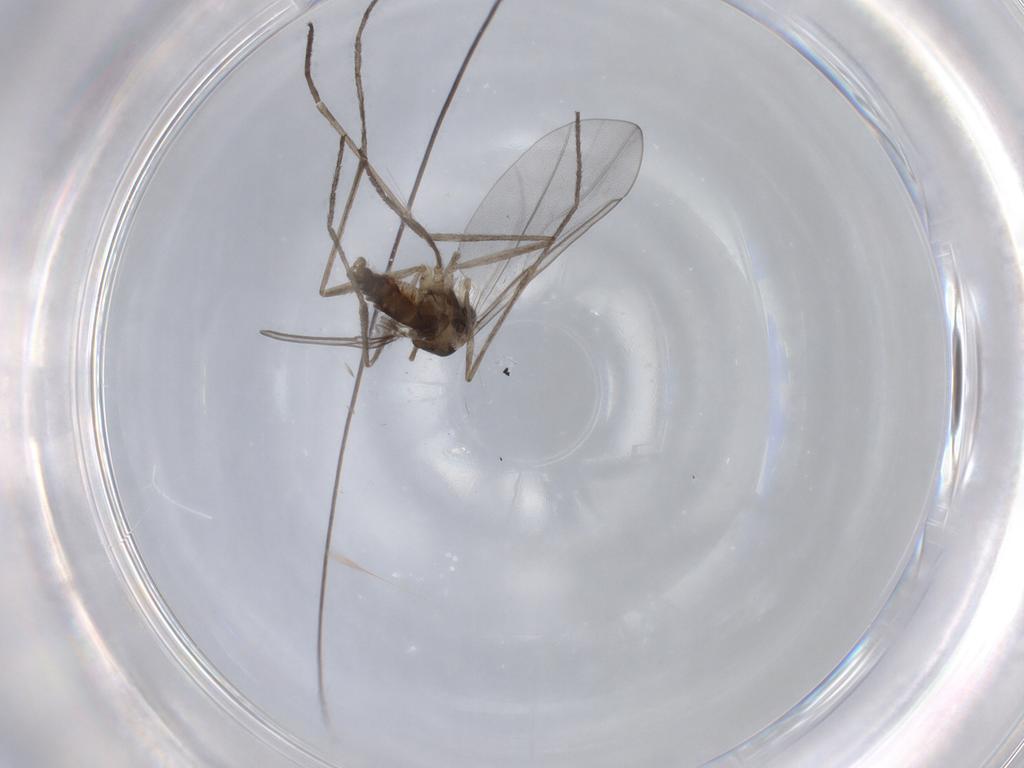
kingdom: Animalia
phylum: Arthropoda
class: Insecta
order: Diptera
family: Cecidomyiidae
